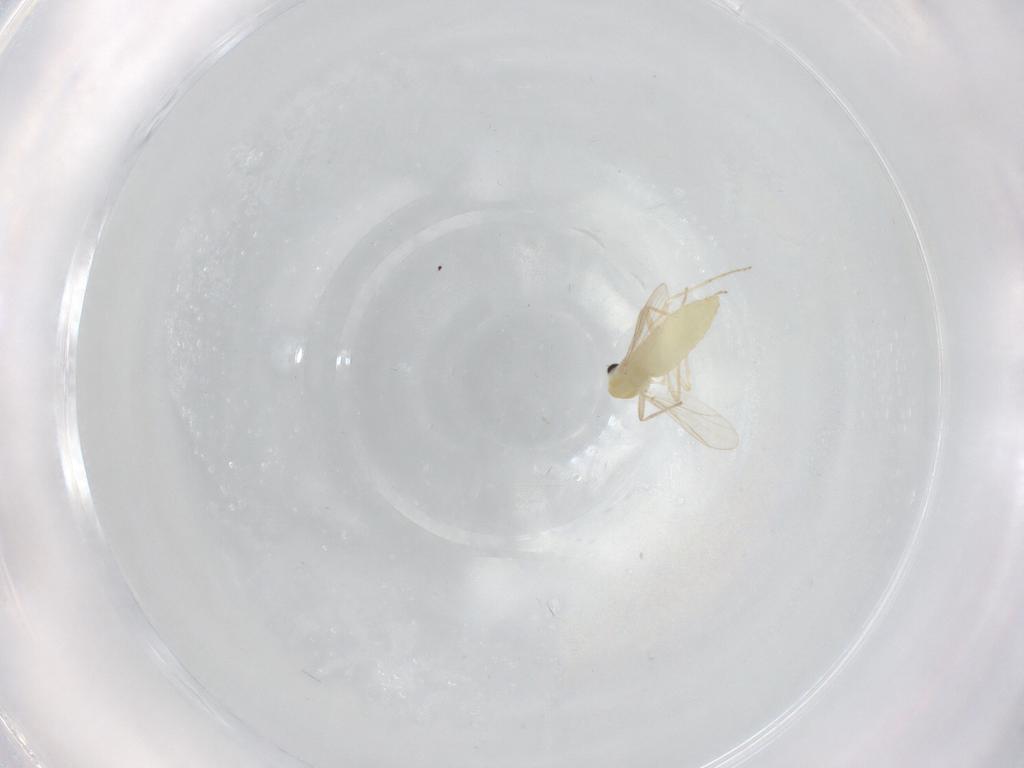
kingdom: Animalia
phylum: Arthropoda
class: Insecta
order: Diptera
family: Chironomidae
